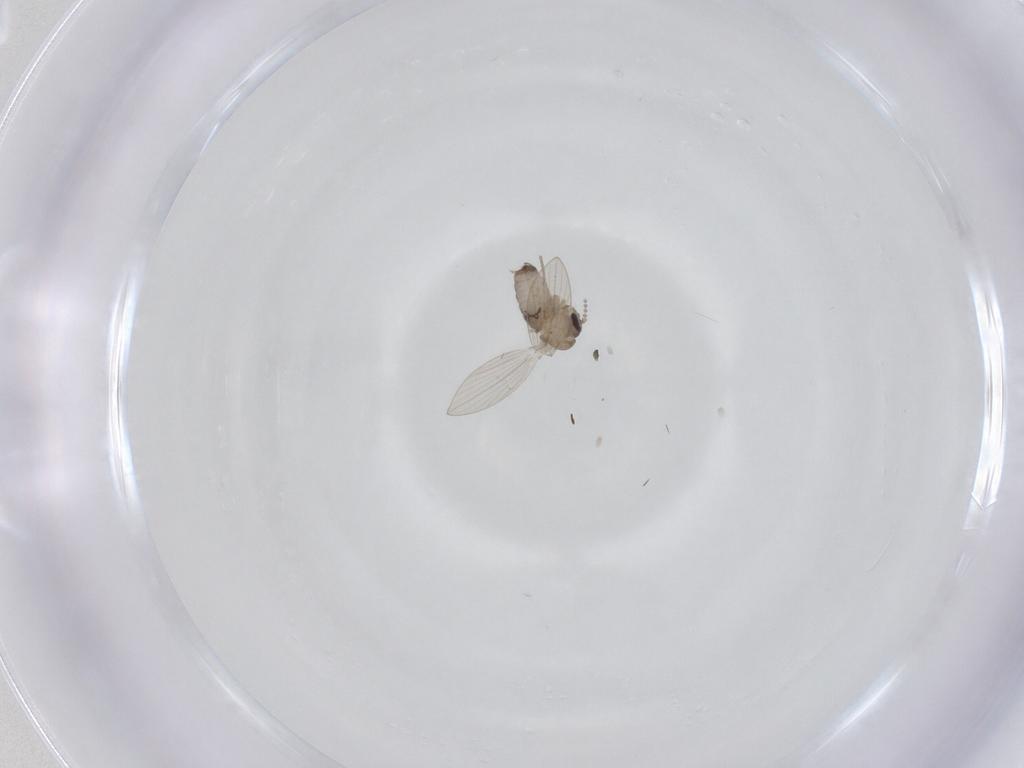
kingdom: Animalia
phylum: Arthropoda
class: Insecta
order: Diptera
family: Psychodidae
